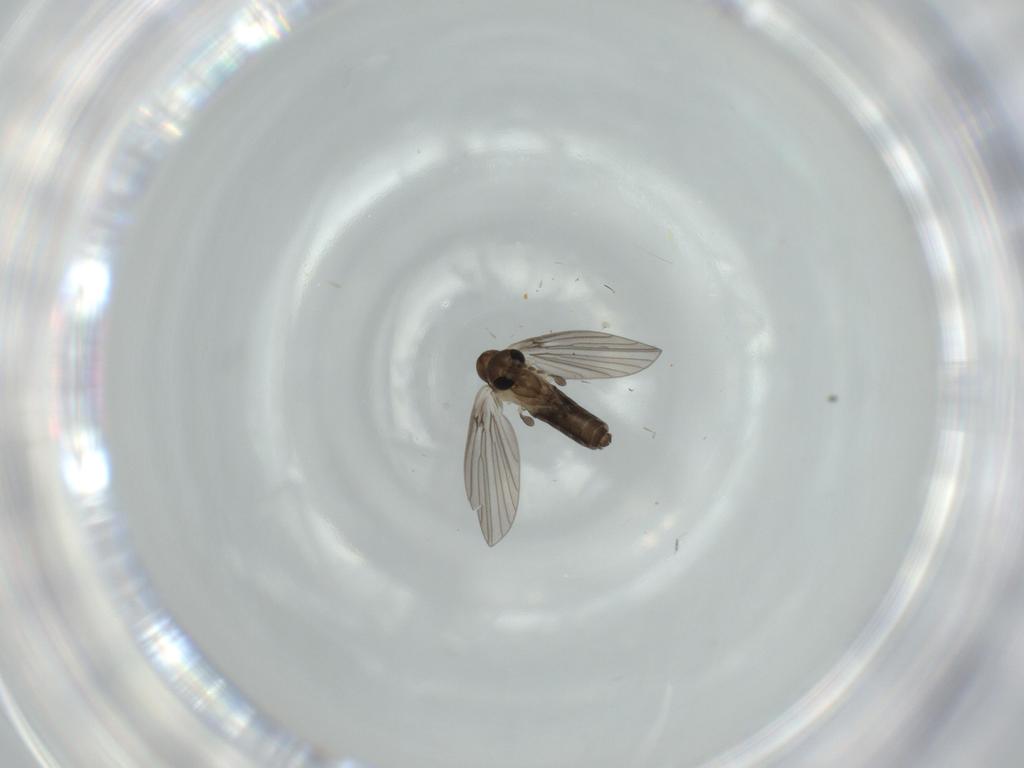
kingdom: Animalia
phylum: Arthropoda
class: Insecta
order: Diptera
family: Psychodidae
